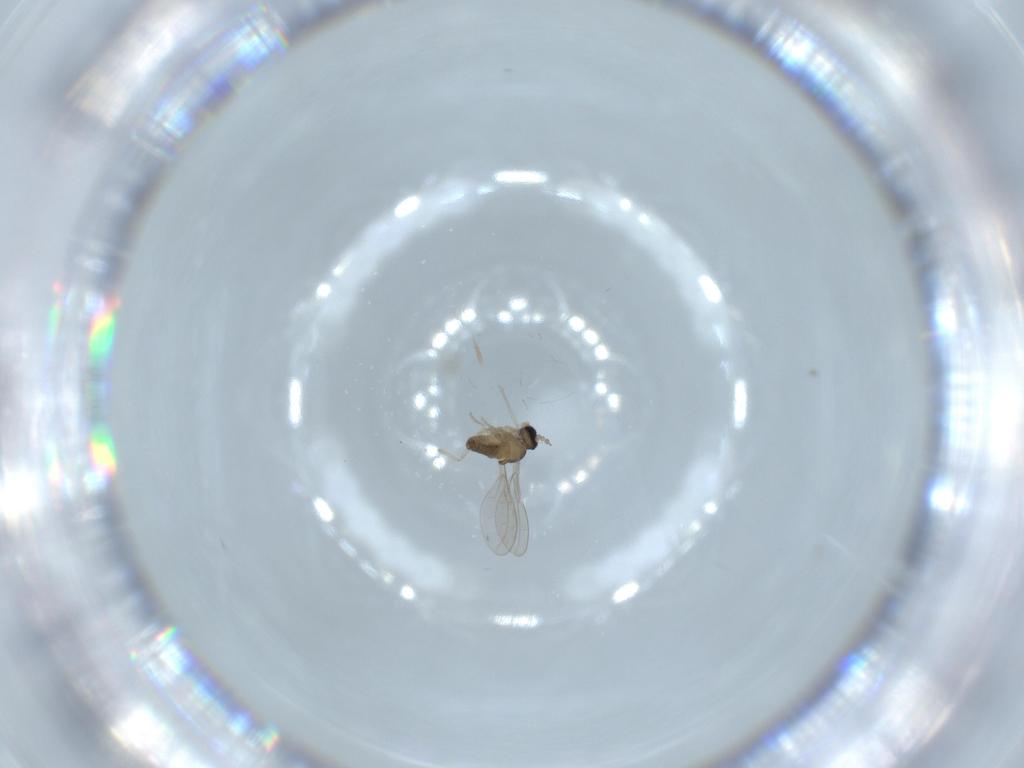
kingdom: Animalia
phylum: Arthropoda
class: Insecta
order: Diptera
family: Cecidomyiidae
